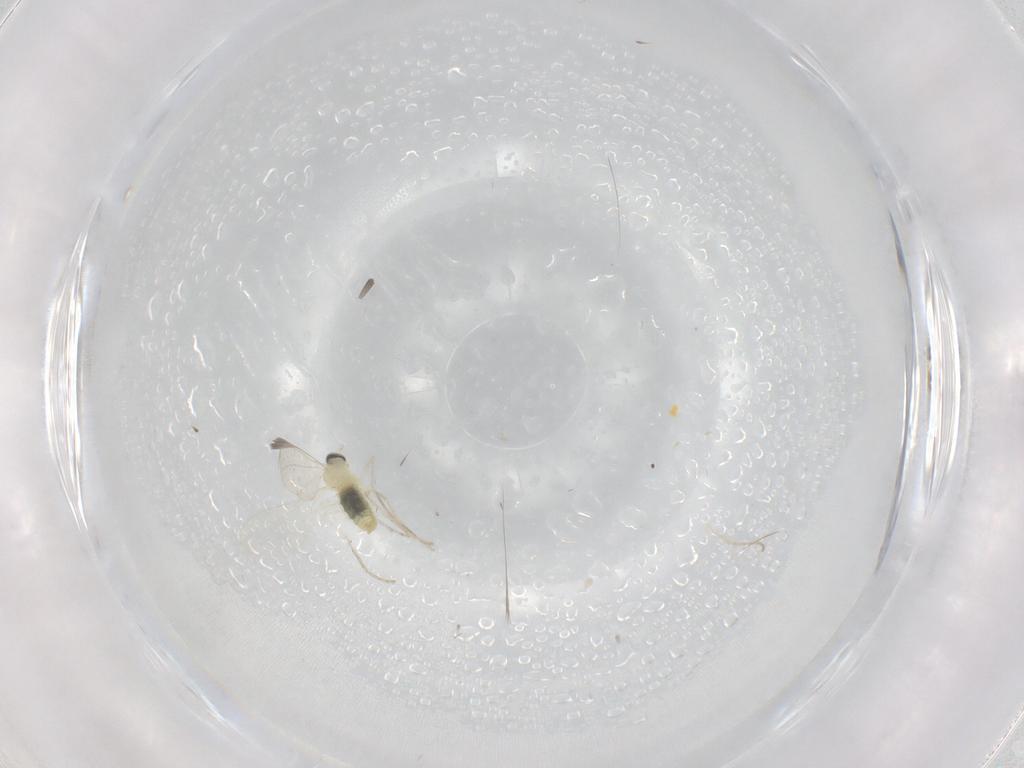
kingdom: Animalia
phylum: Arthropoda
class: Insecta
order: Diptera
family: Cecidomyiidae
